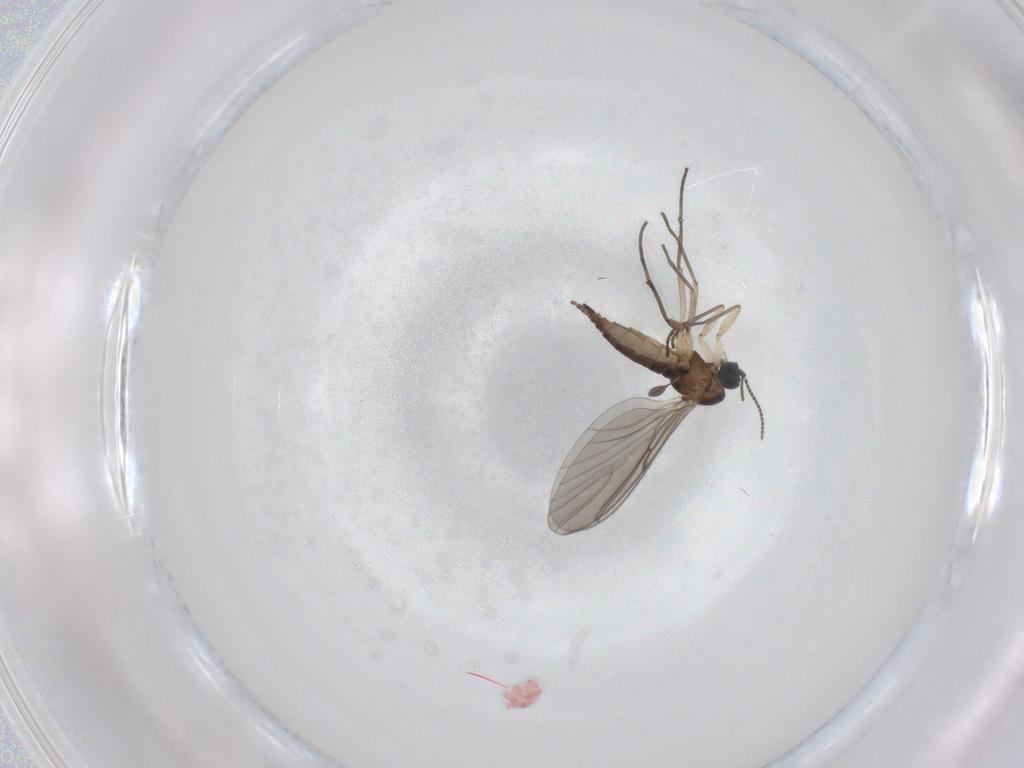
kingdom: Animalia
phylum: Arthropoda
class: Insecta
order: Diptera
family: Sciaridae
